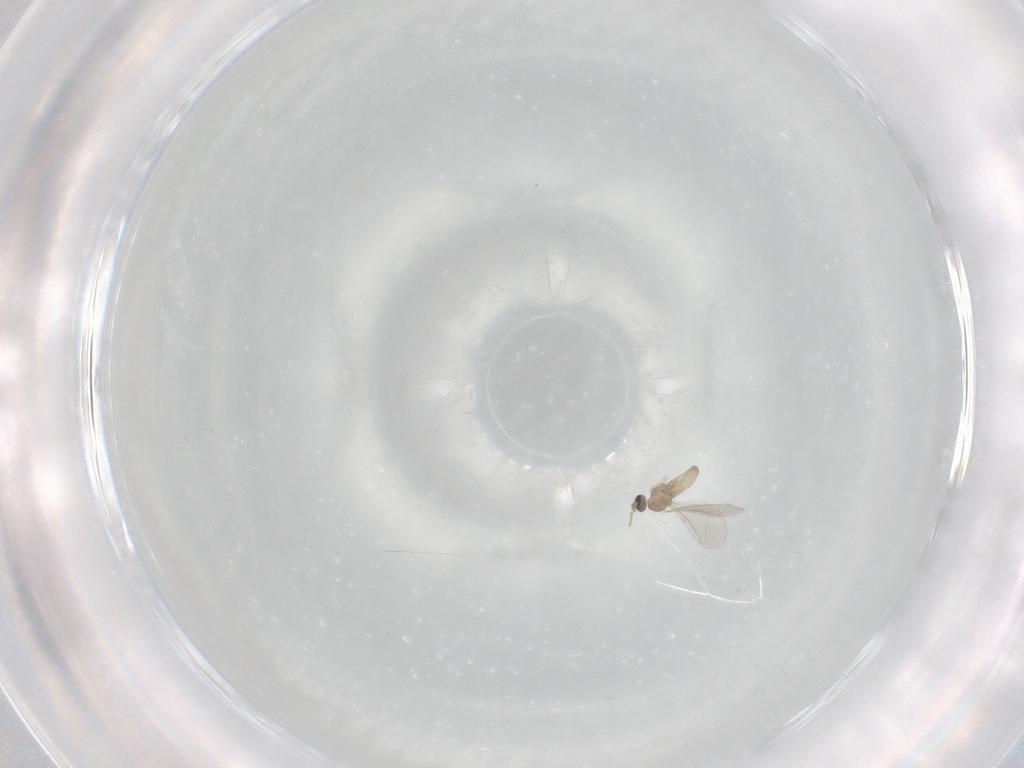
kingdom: Animalia
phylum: Arthropoda
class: Insecta
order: Diptera
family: Cecidomyiidae
